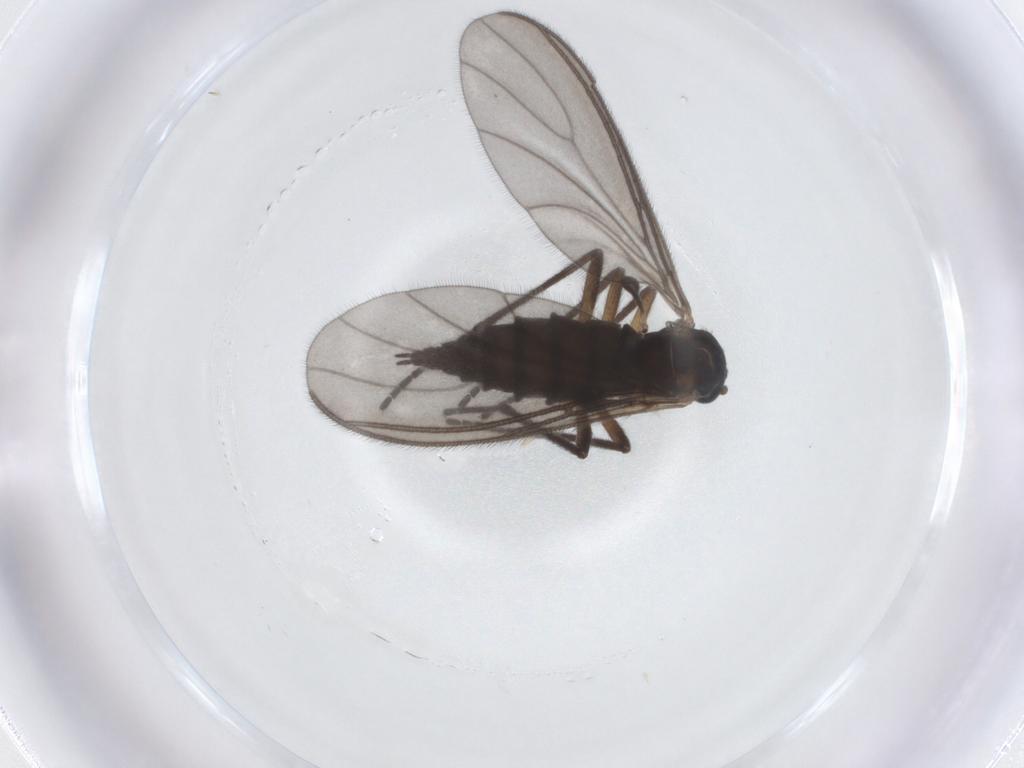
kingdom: Animalia
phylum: Arthropoda
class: Insecta
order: Diptera
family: Sciaridae
